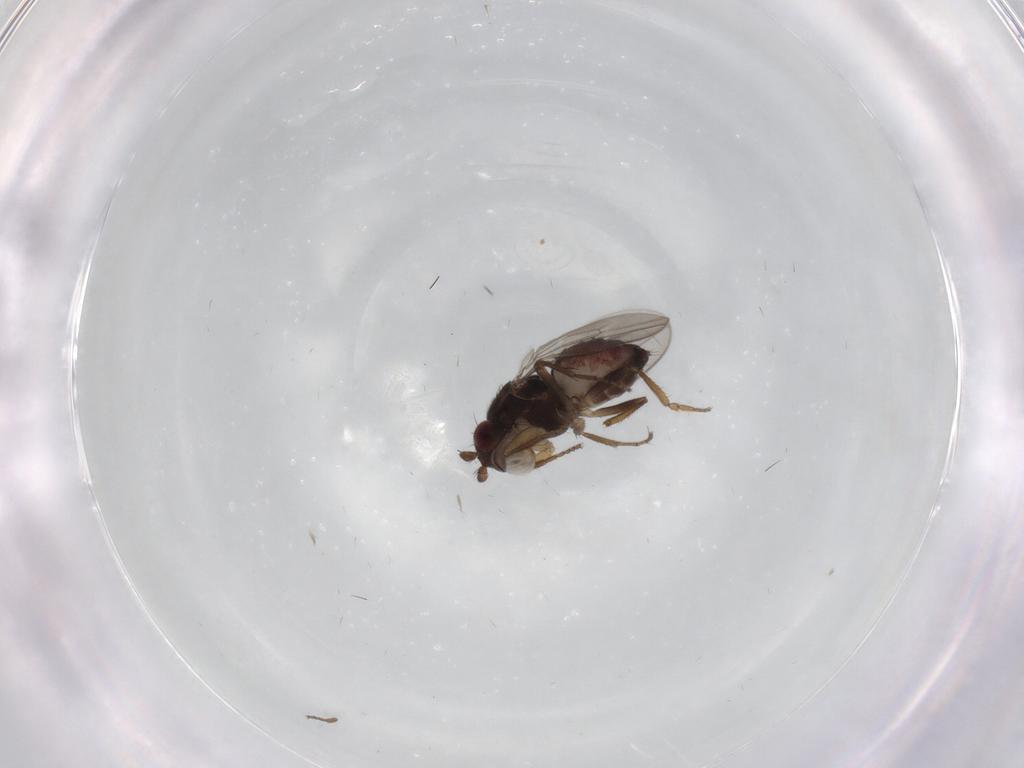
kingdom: Animalia
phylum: Arthropoda
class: Insecta
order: Diptera
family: Sphaeroceridae
